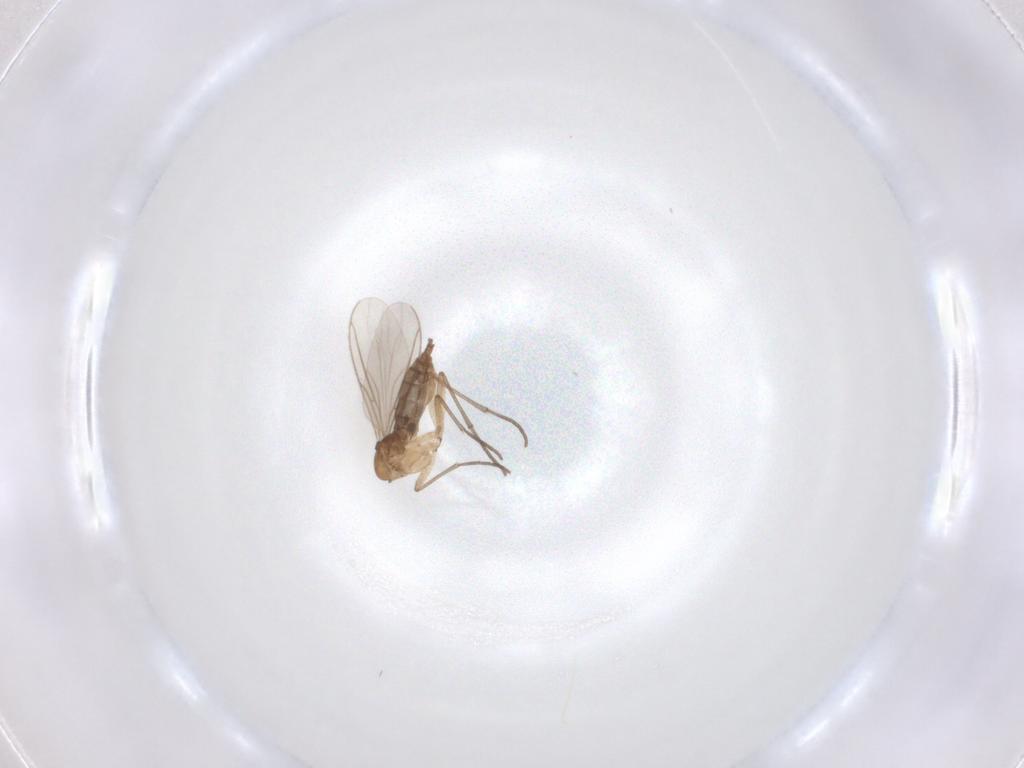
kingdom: Animalia
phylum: Arthropoda
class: Insecta
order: Diptera
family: Sciaridae
